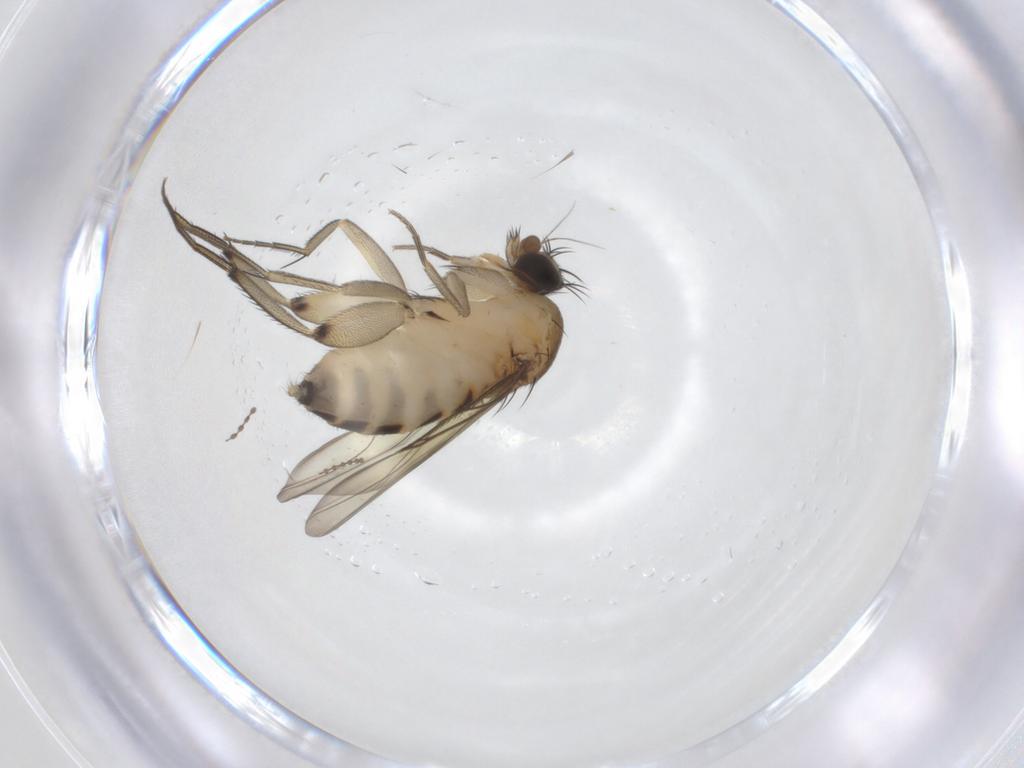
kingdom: Animalia
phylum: Arthropoda
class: Insecta
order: Diptera
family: Phoridae
